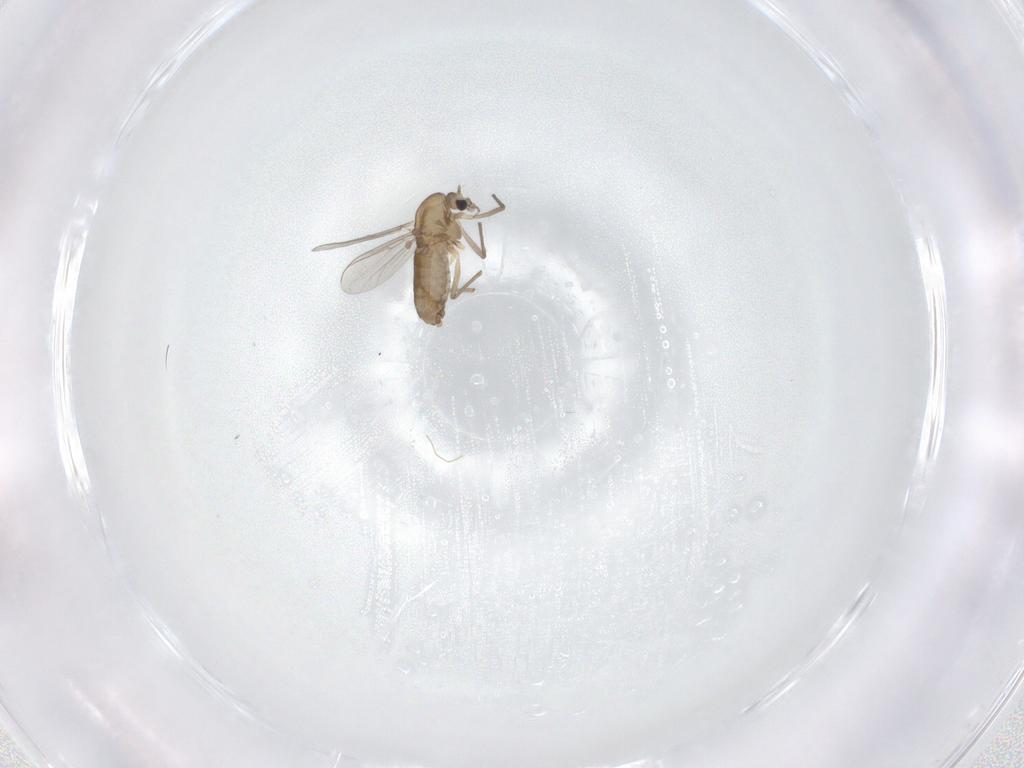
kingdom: Animalia
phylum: Arthropoda
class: Insecta
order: Diptera
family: Chironomidae
